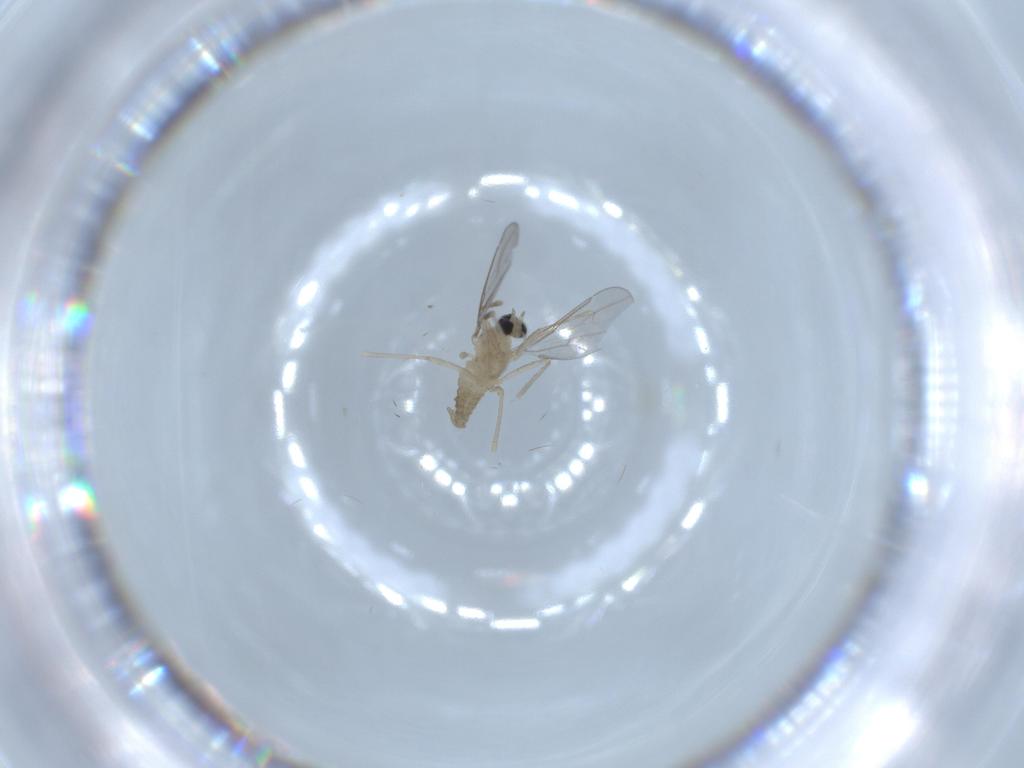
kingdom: Animalia
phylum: Arthropoda
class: Insecta
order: Diptera
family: Cecidomyiidae
